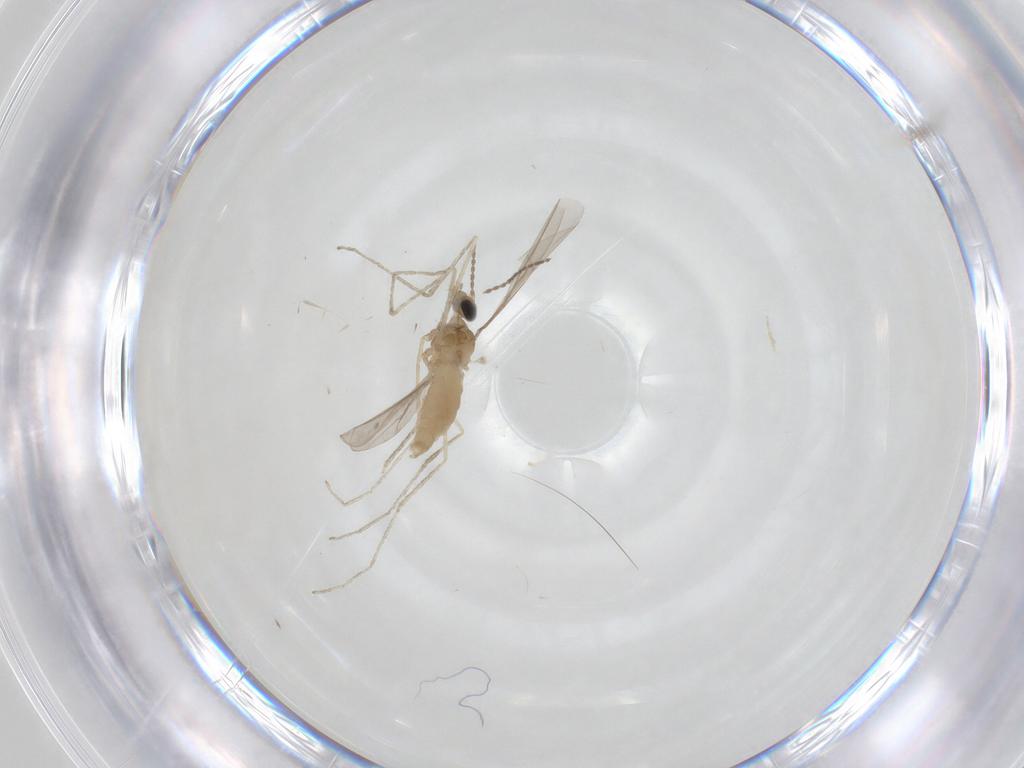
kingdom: Animalia
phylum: Arthropoda
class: Insecta
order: Diptera
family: Cecidomyiidae
